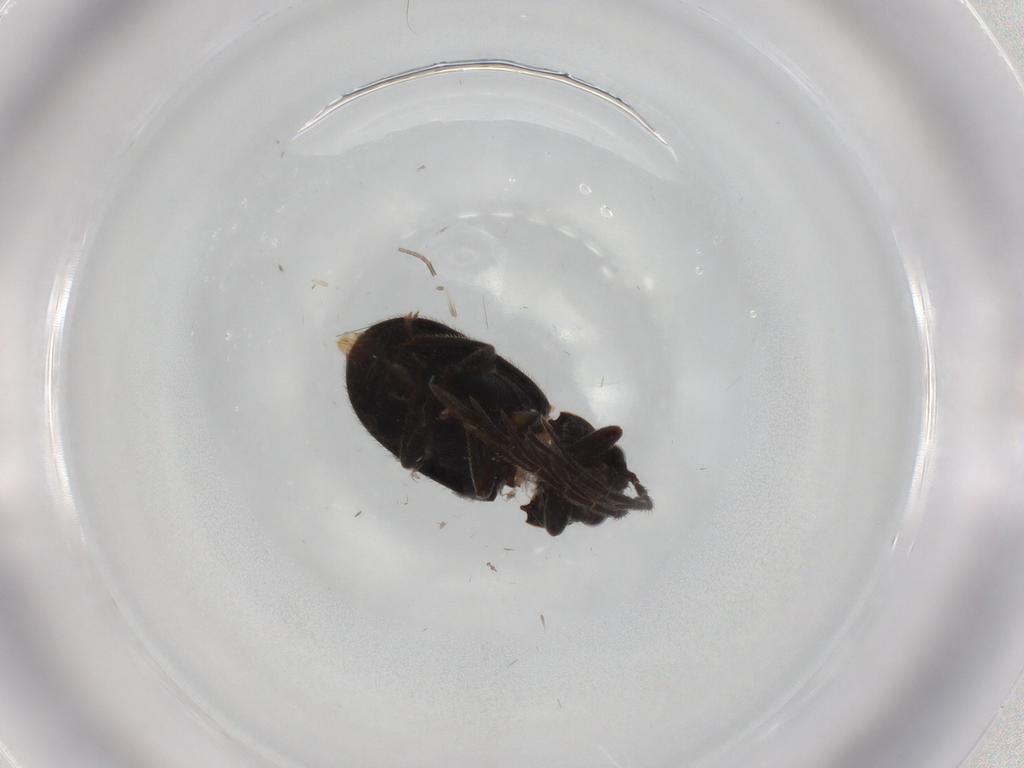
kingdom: Animalia
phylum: Arthropoda
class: Insecta
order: Coleoptera
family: Ptilodactylidae
